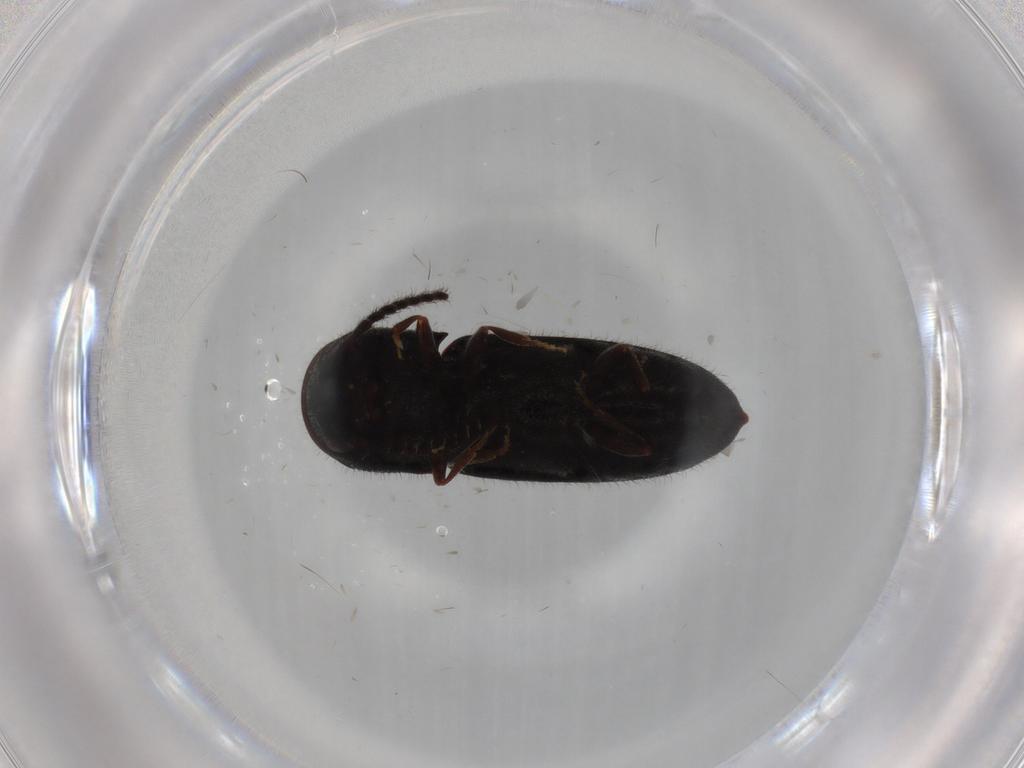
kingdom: Animalia
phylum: Arthropoda
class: Insecta
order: Coleoptera
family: Eucnemidae
